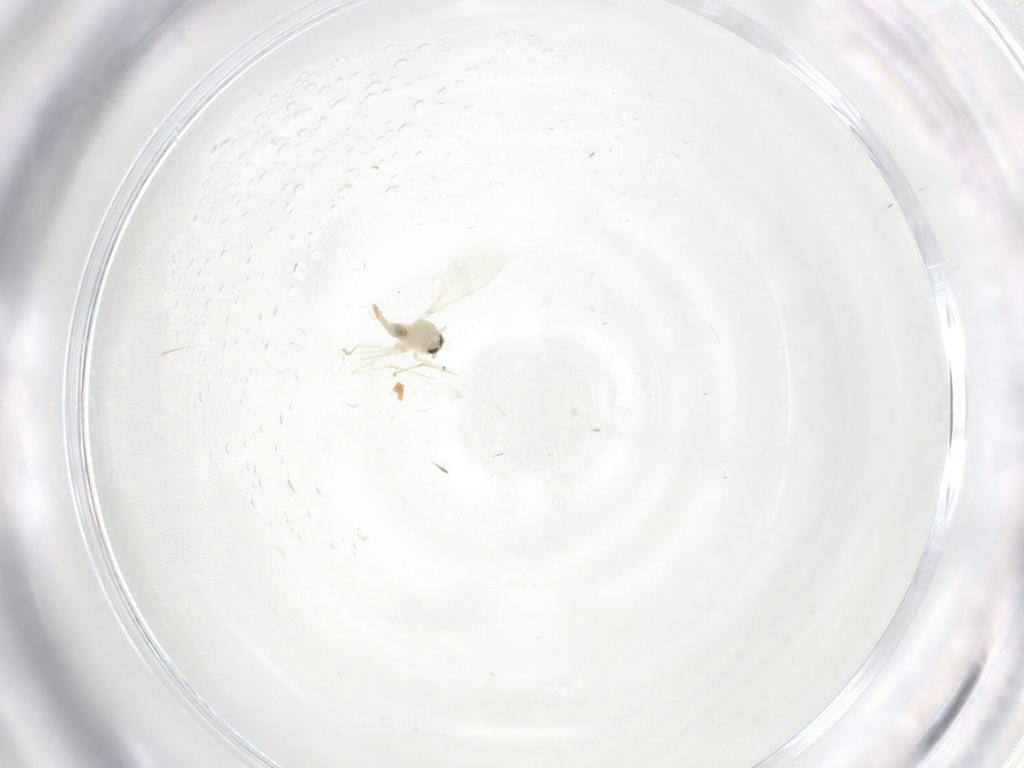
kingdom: Animalia
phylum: Arthropoda
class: Insecta
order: Diptera
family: Cecidomyiidae
